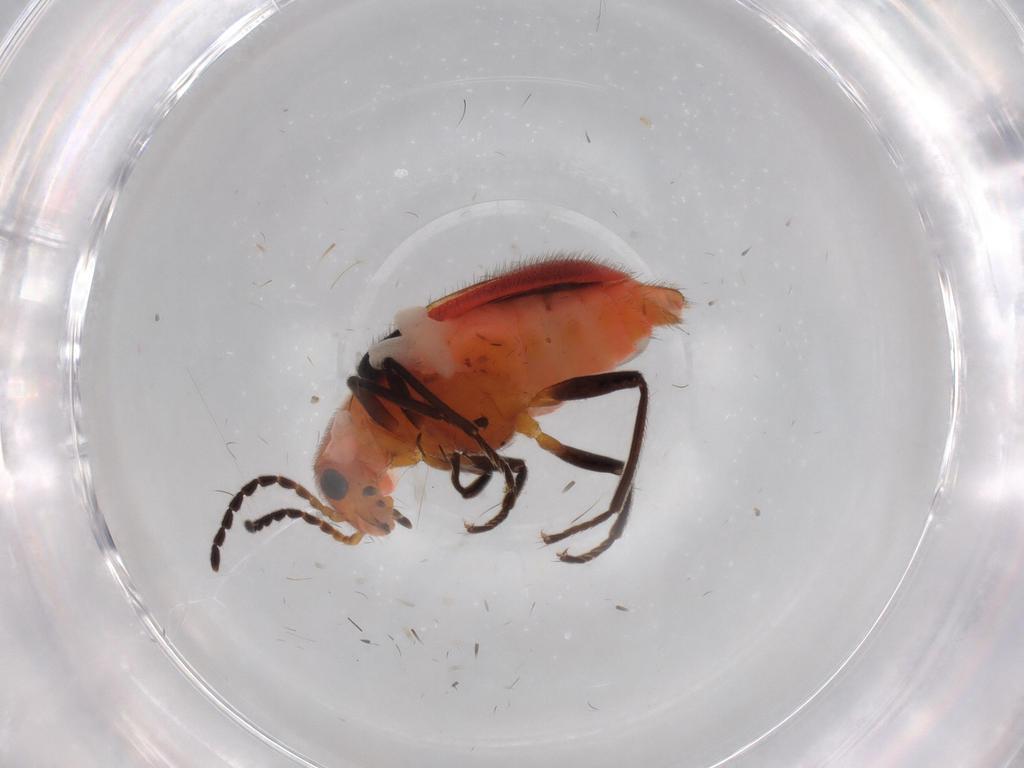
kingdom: Animalia
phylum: Arthropoda
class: Insecta
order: Coleoptera
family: Melyridae
